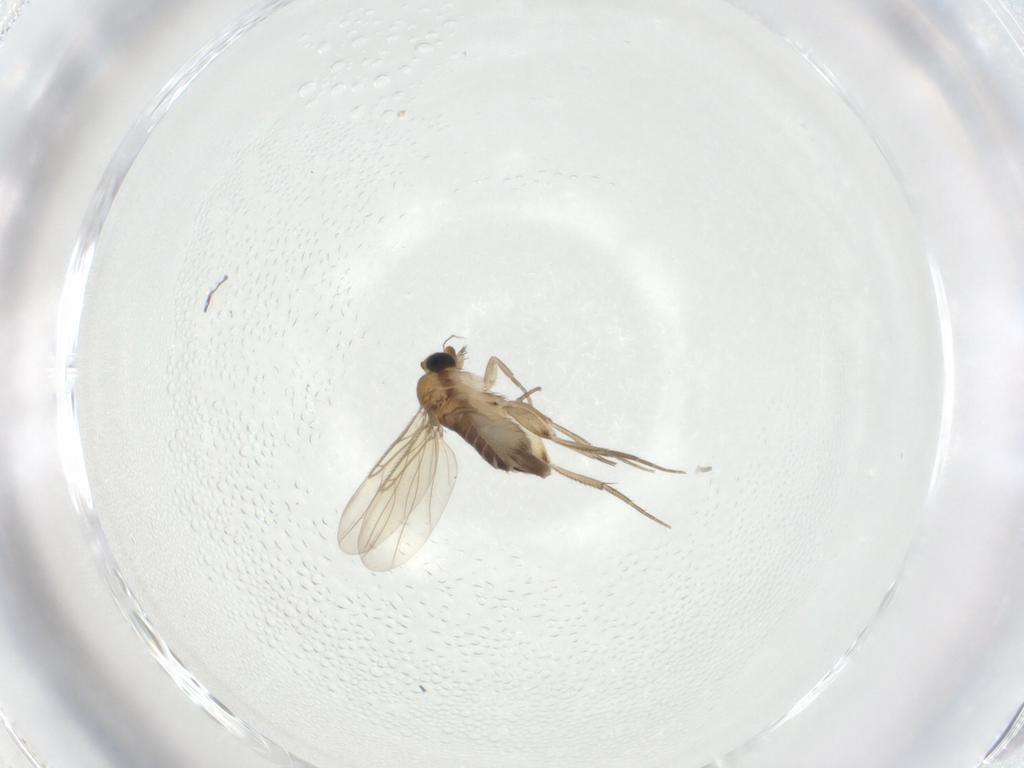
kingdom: Animalia
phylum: Arthropoda
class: Insecta
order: Diptera
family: Phoridae
